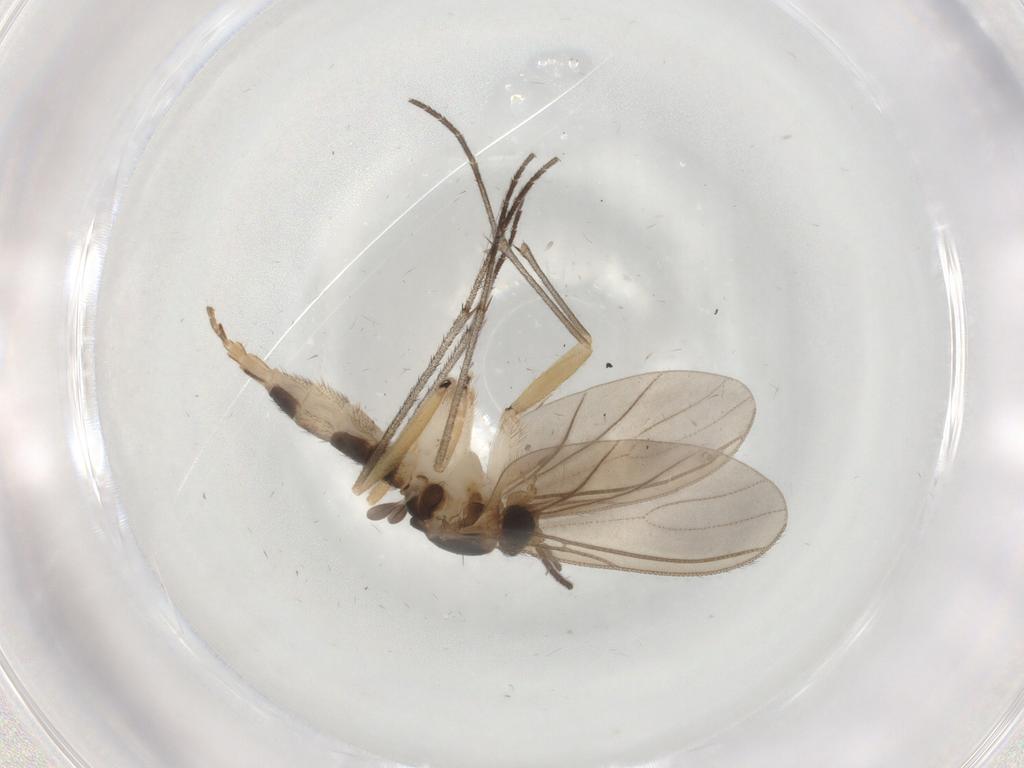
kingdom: Animalia
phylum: Arthropoda
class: Insecta
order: Diptera
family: Sciaridae
